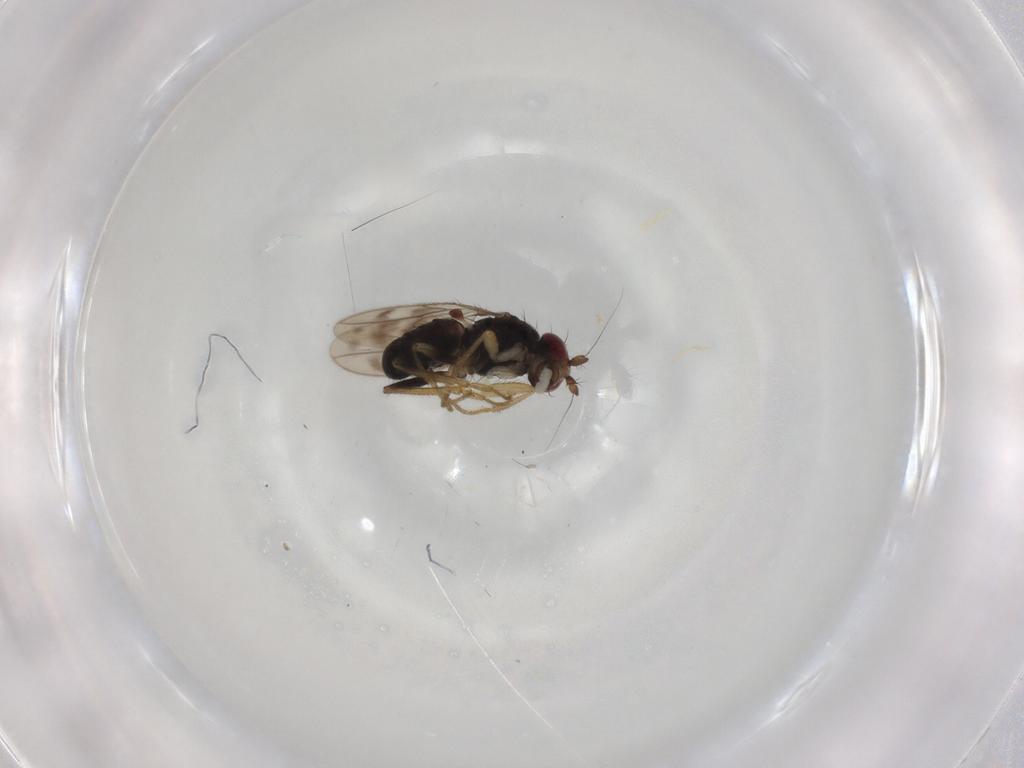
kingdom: Animalia
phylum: Arthropoda
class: Insecta
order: Diptera
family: Sphaeroceridae
